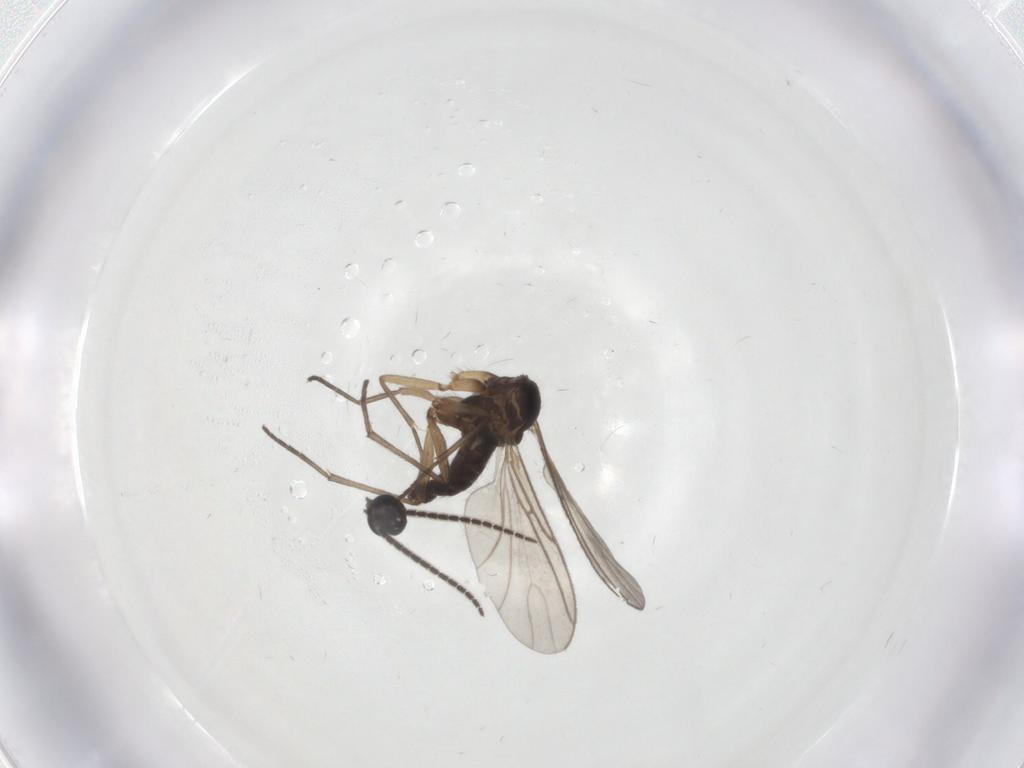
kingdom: Animalia
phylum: Arthropoda
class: Insecta
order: Diptera
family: Sciaridae
